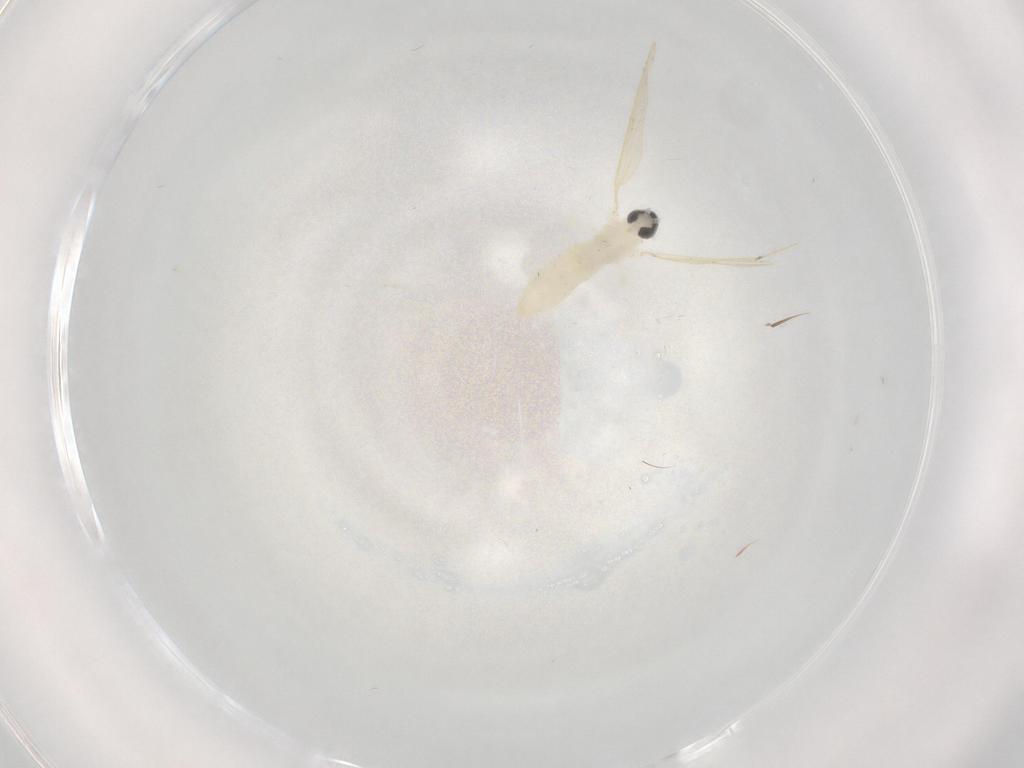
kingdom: Animalia
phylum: Arthropoda
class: Insecta
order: Diptera
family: Cecidomyiidae
